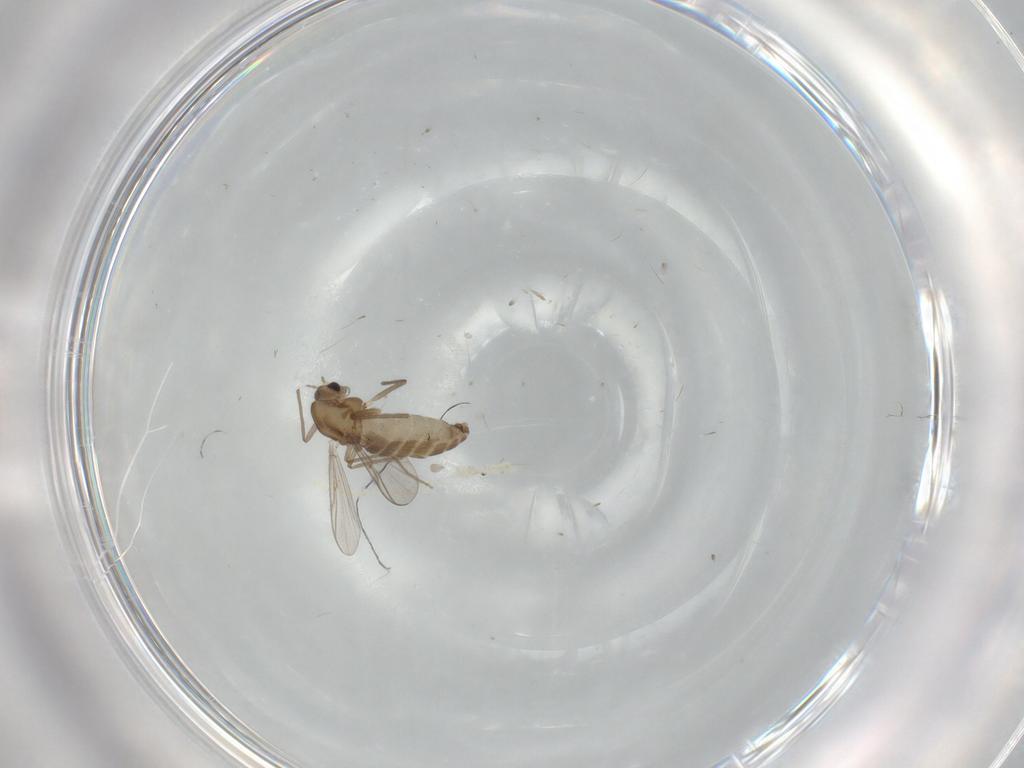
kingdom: Animalia
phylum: Arthropoda
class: Insecta
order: Diptera
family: Chironomidae
